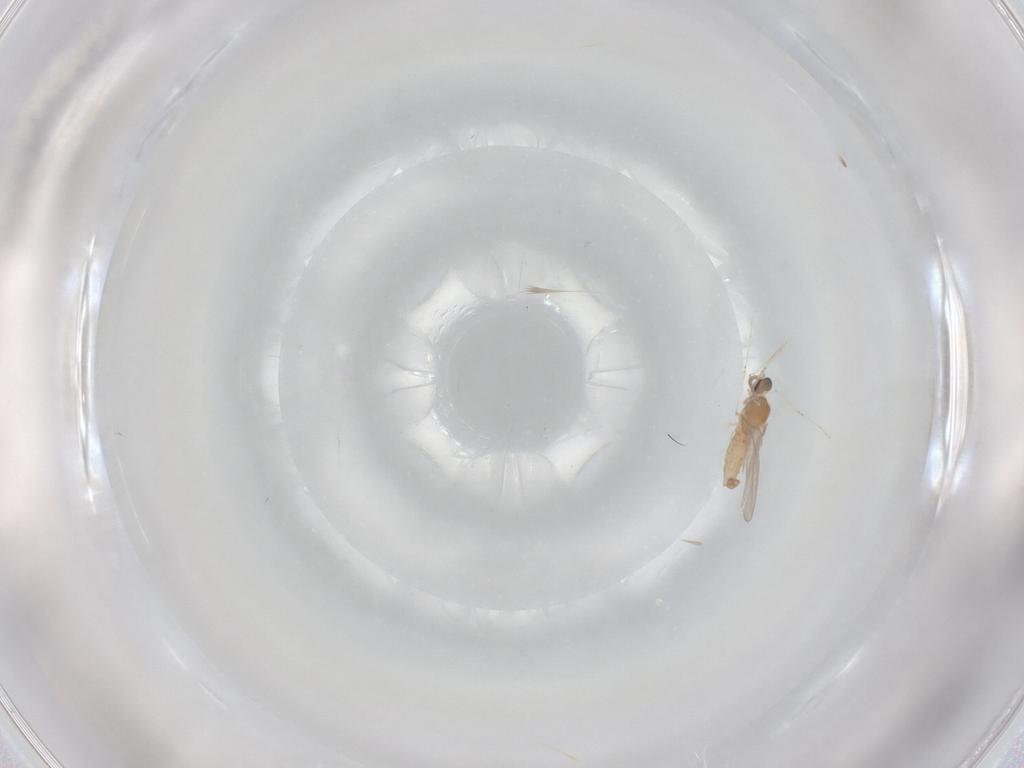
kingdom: Animalia
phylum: Arthropoda
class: Insecta
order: Diptera
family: Cecidomyiidae
